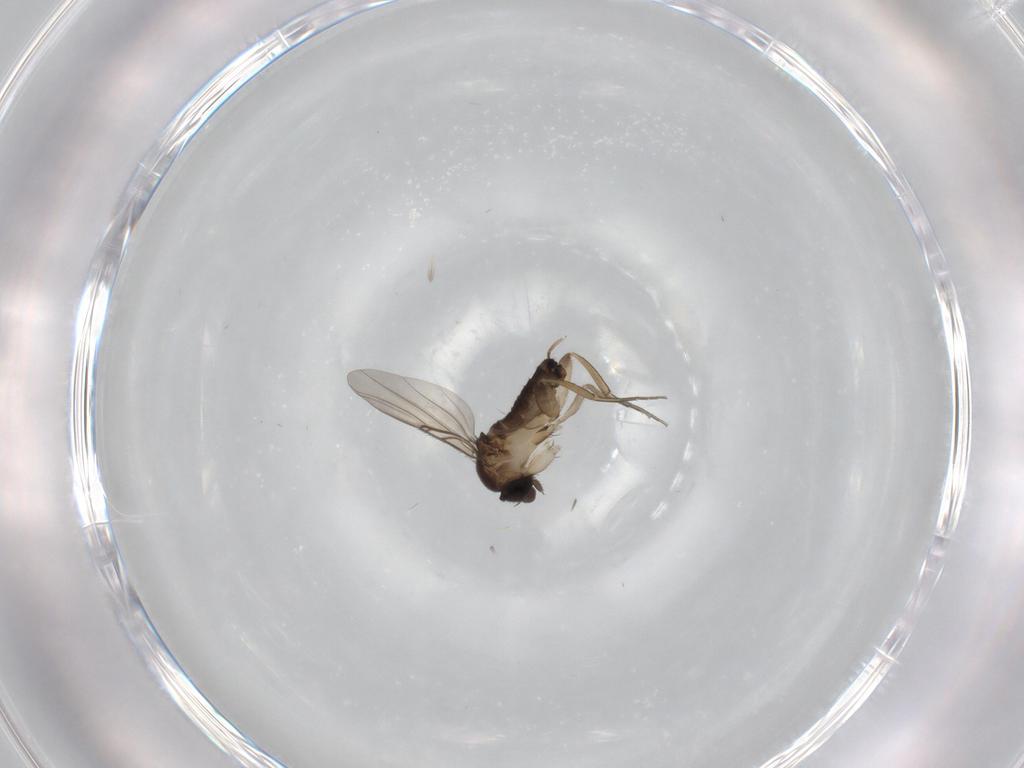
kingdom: Animalia
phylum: Arthropoda
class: Insecta
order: Diptera
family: Phoridae
